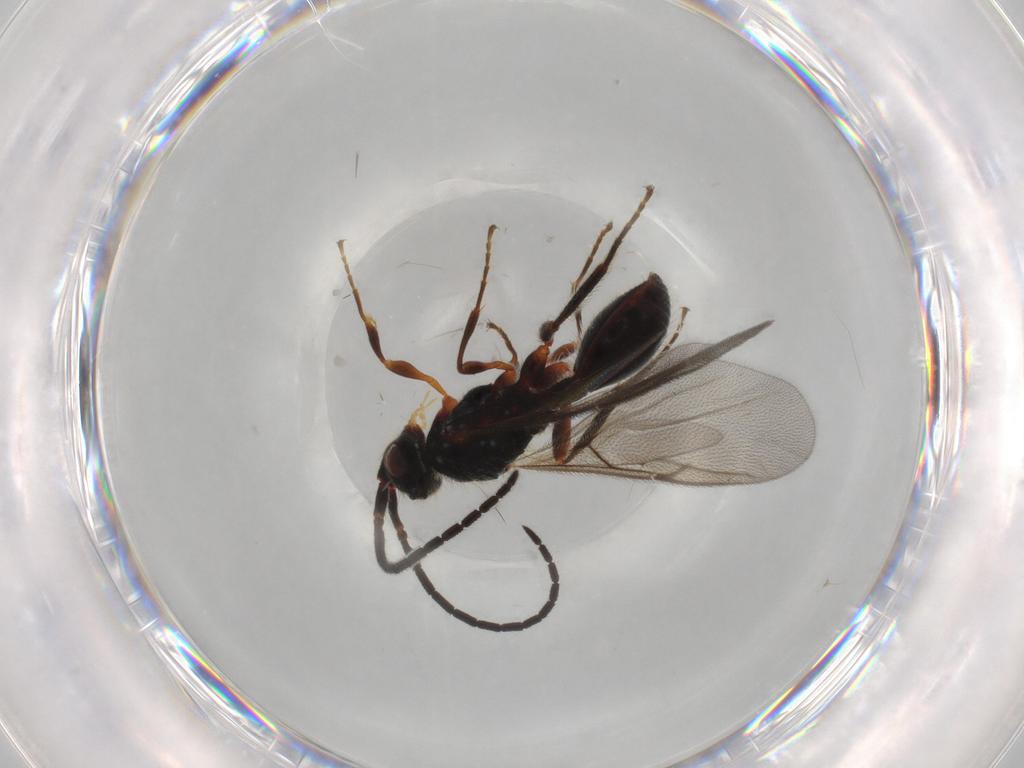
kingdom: Animalia
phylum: Arthropoda
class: Insecta
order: Hymenoptera
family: Diapriidae
